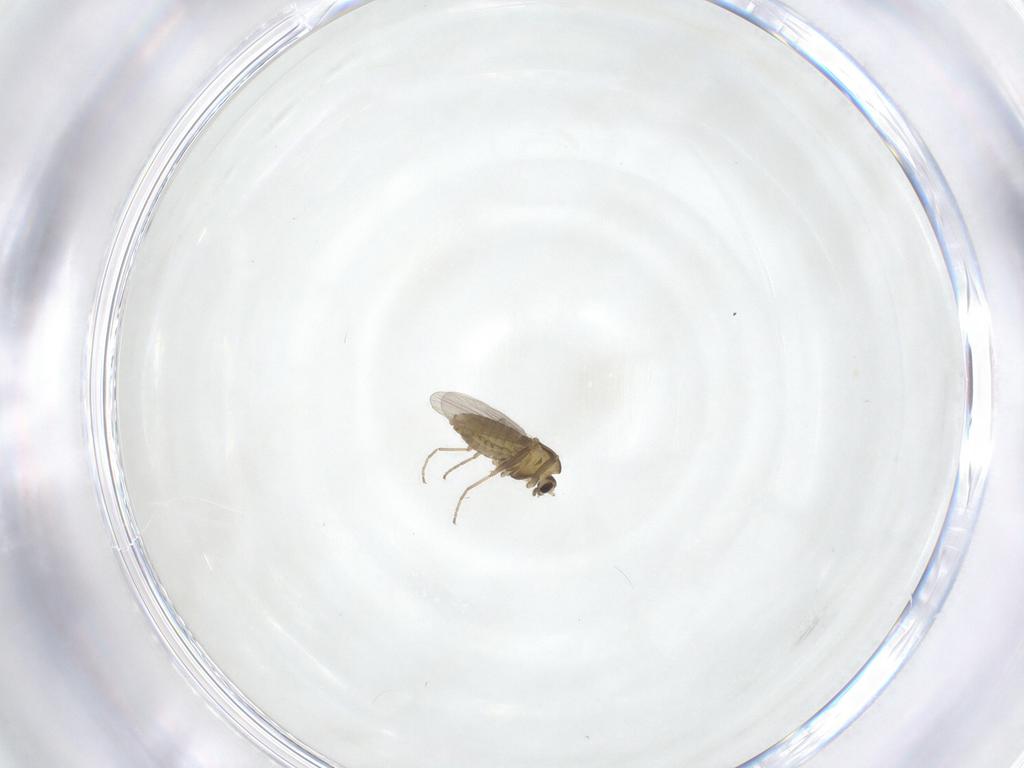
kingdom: Animalia
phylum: Arthropoda
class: Insecta
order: Diptera
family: Chironomidae
